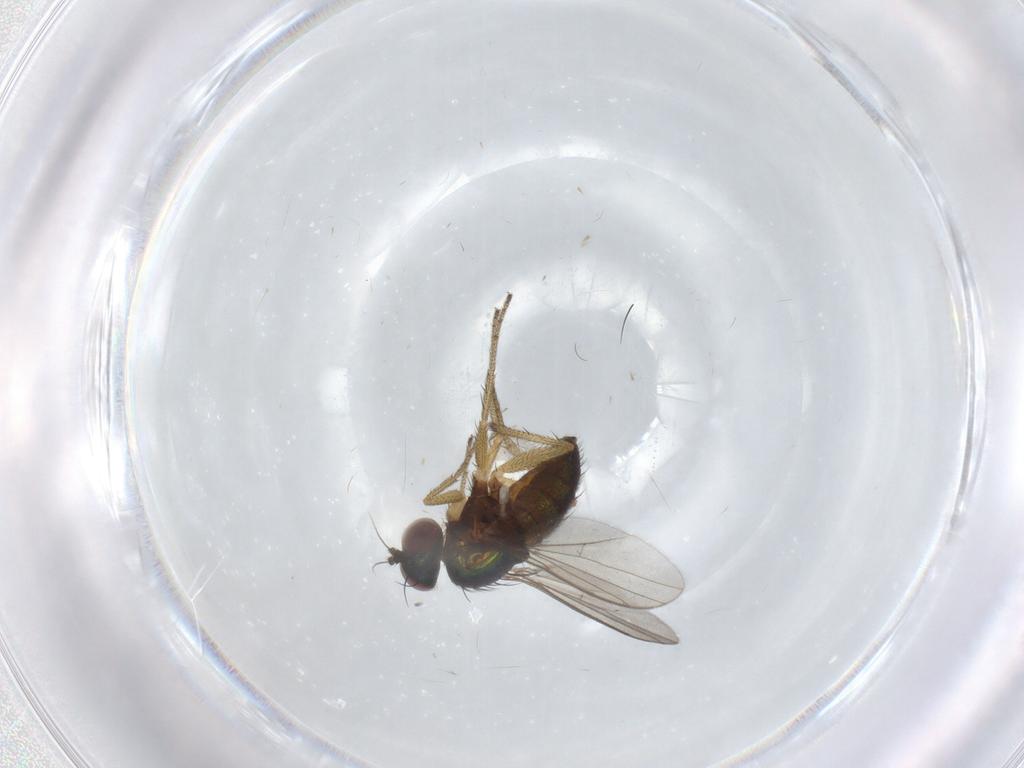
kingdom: Animalia
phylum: Arthropoda
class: Insecta
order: Diptera
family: Dolichopodidae
